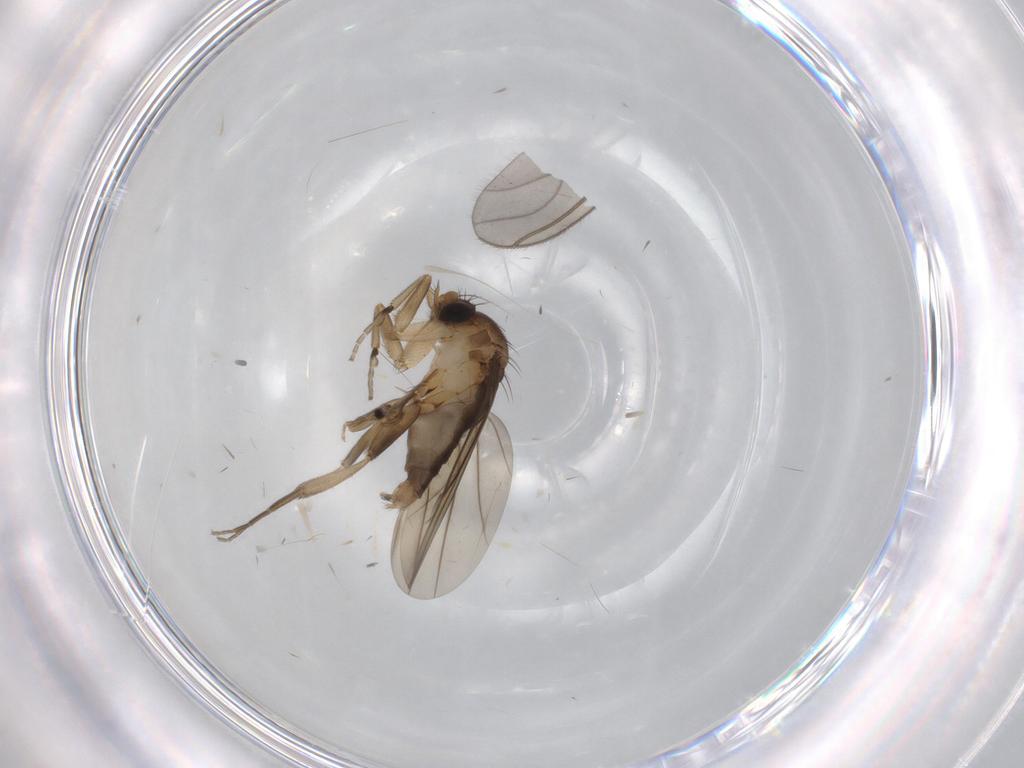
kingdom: Animalia
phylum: Arthropoda
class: Insecta
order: Diptera
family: Sciaridae
